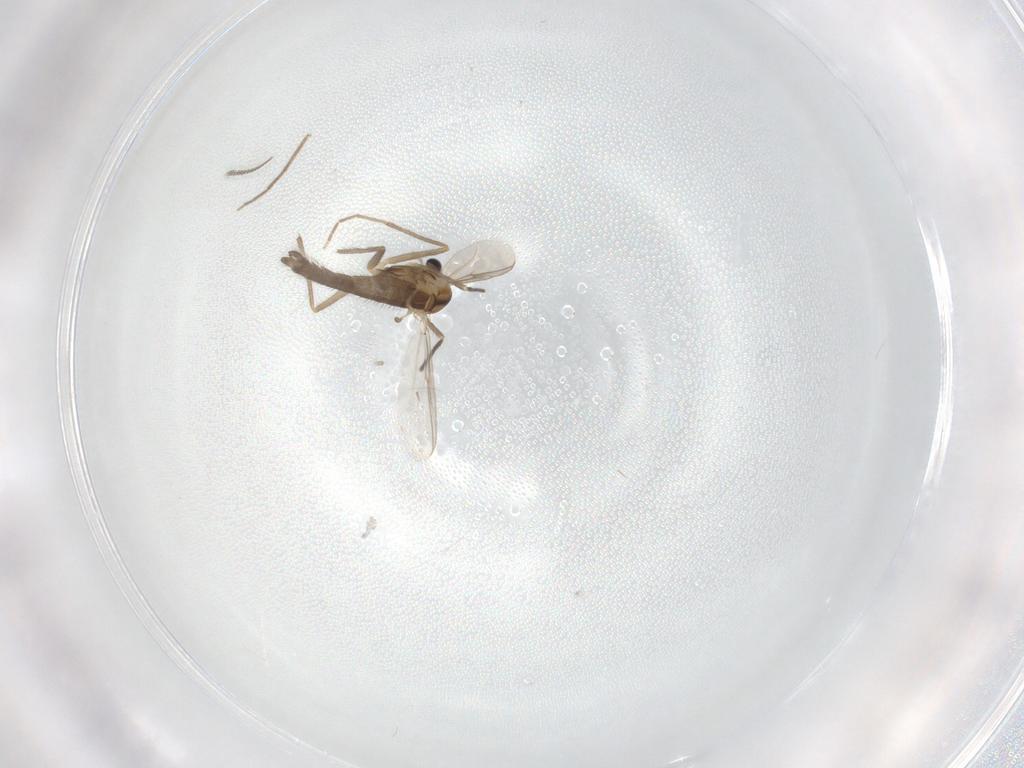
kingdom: Animalia
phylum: Arthropoda
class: Insecta
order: Diptera
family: Chironomidae
